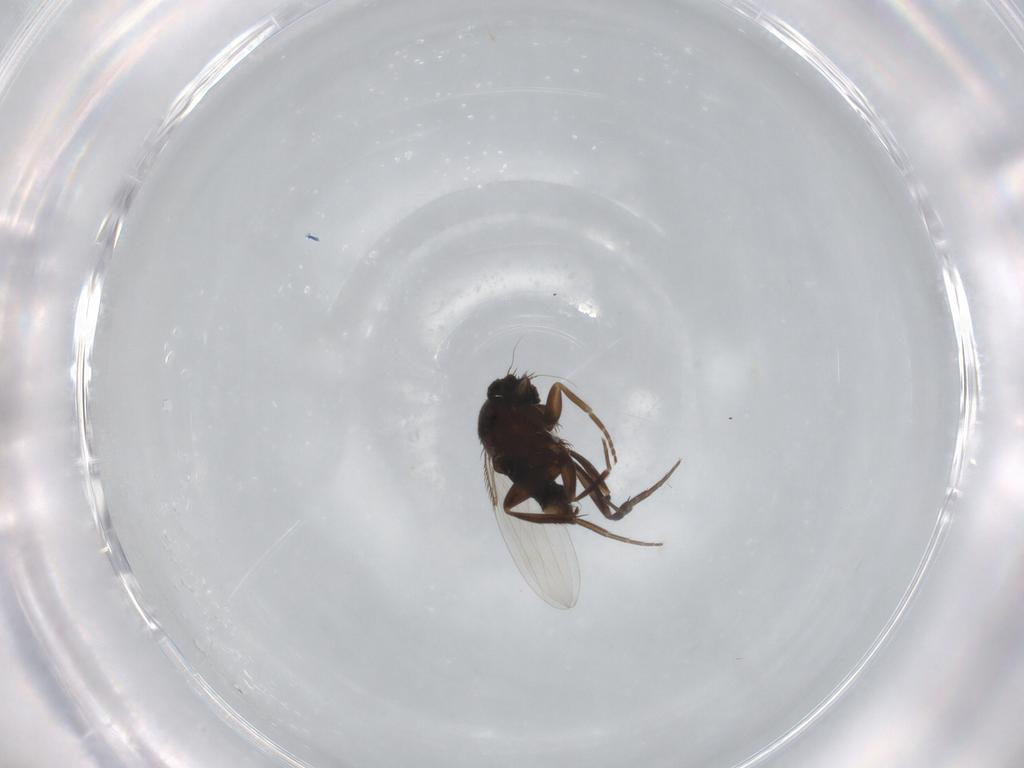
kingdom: Animalia
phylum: Arthropoda
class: Insecta
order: Diptera
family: Phoridae
